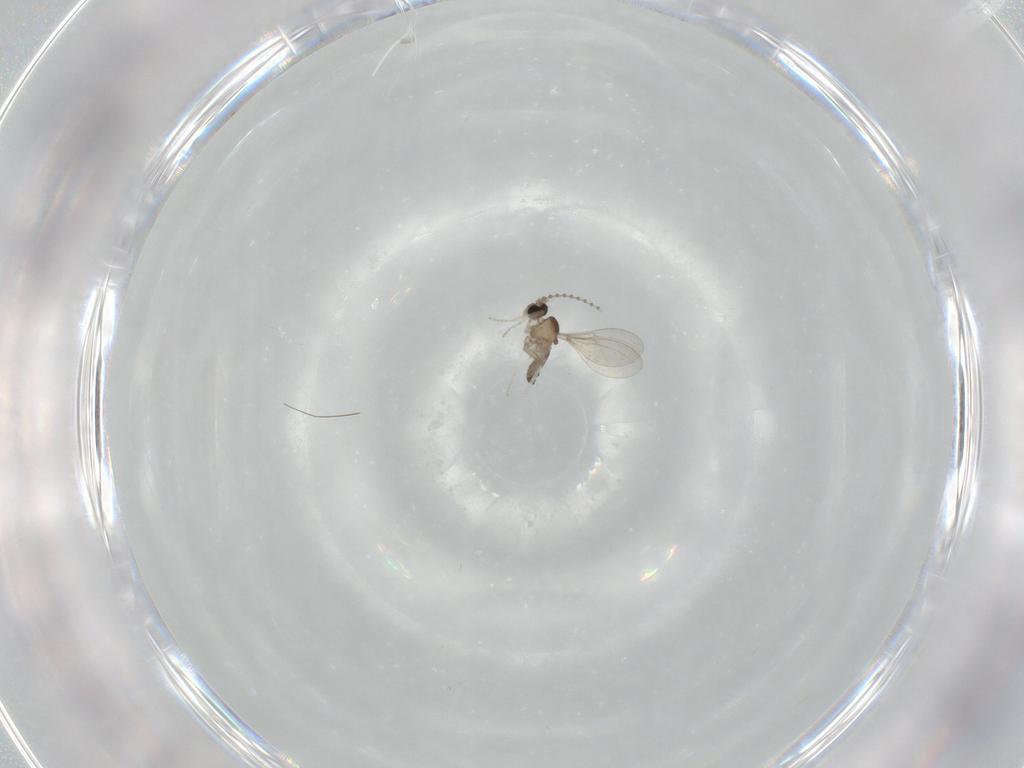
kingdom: Animalia
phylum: Arthropoda
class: Insecta
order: Diptera
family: Cecidomyiidae
